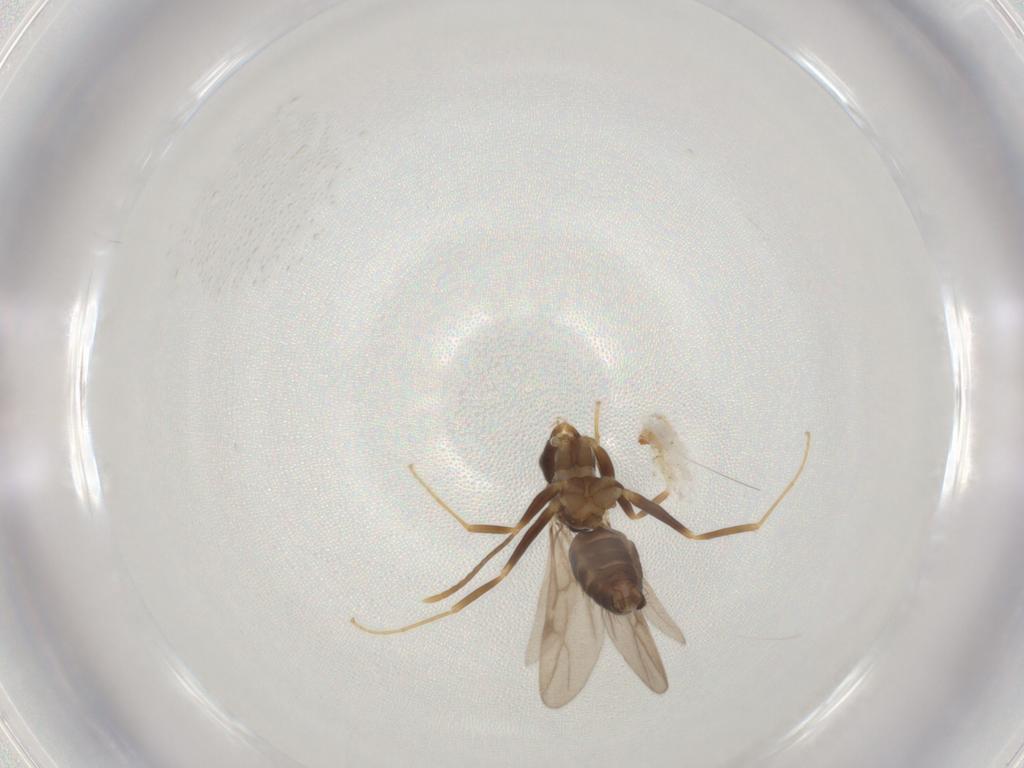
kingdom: Animalia
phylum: Arthropoda
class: Insecta
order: Hymenoptera
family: Formicidae
